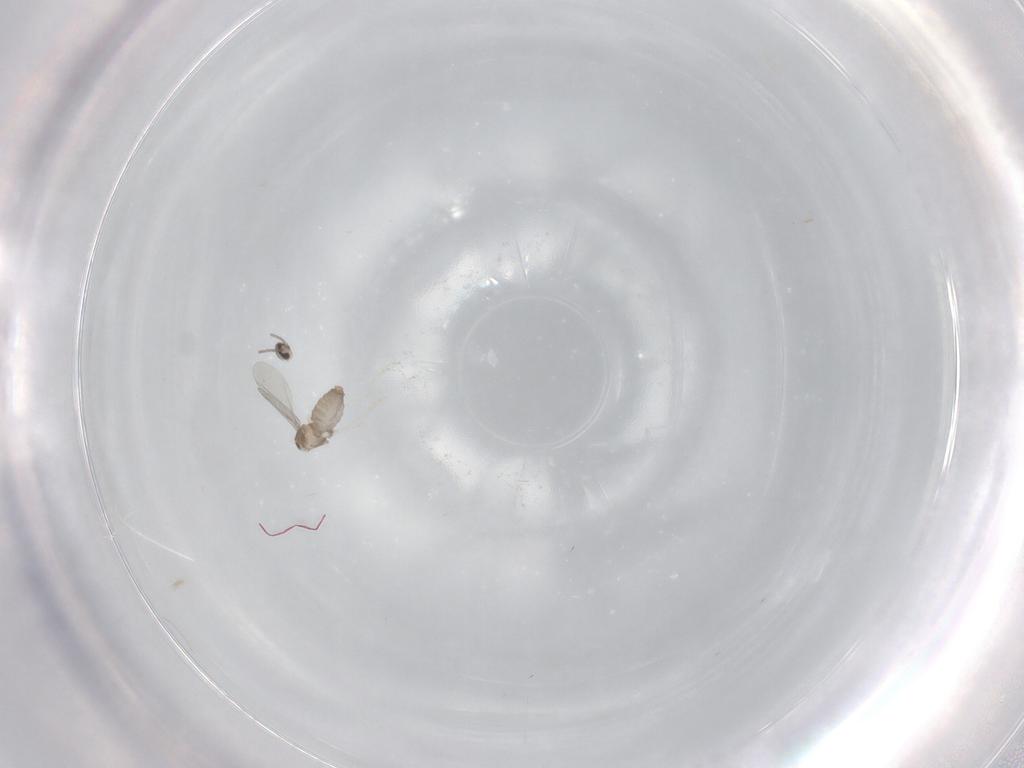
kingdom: Animalia
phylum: Arthropoda
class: Insecta
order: Diptera
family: Cecidomyiidae
